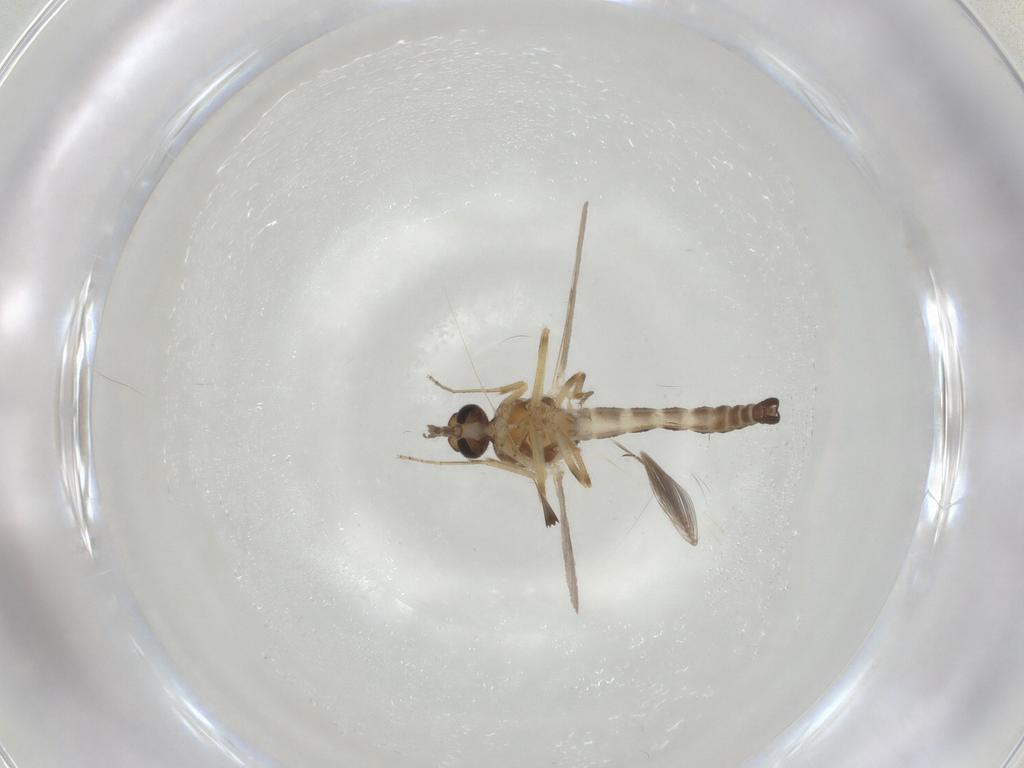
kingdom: Animalia
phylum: Arthropoda
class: Insecta
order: Diptera
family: Ceratopogonidae
